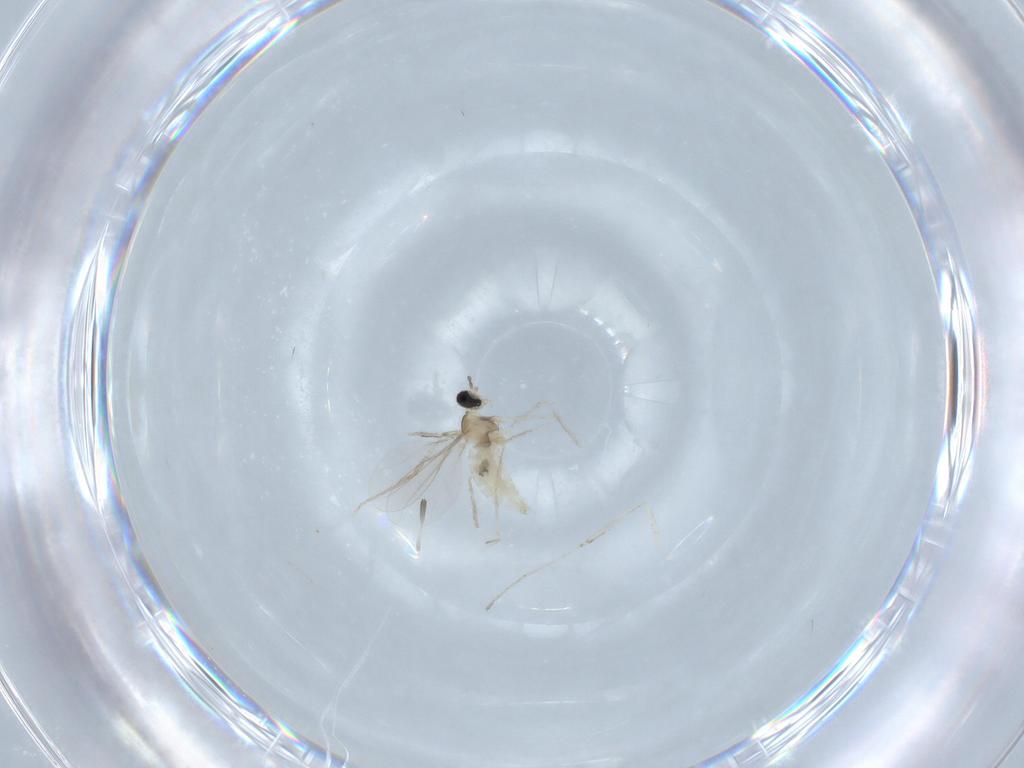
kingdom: Animalia
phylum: Arthropoda
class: Insecta
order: Diptera
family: Cecidomyiidae
